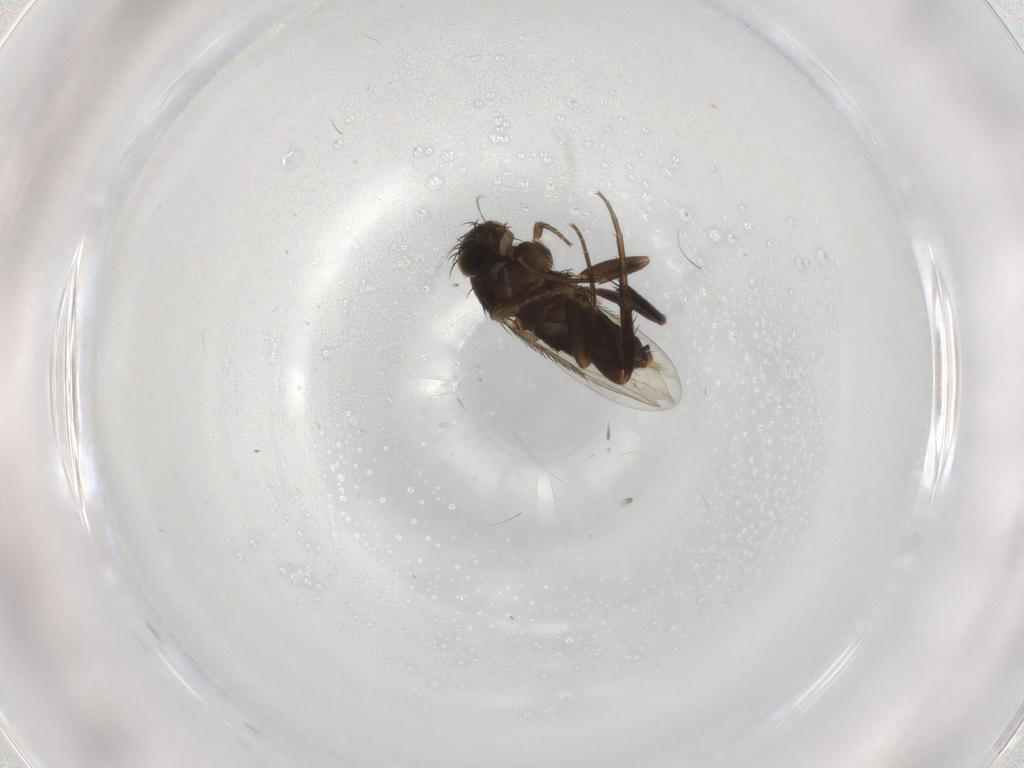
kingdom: Animalia
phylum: Arthropoda
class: Insecta
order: Diptera
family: Phoridae
